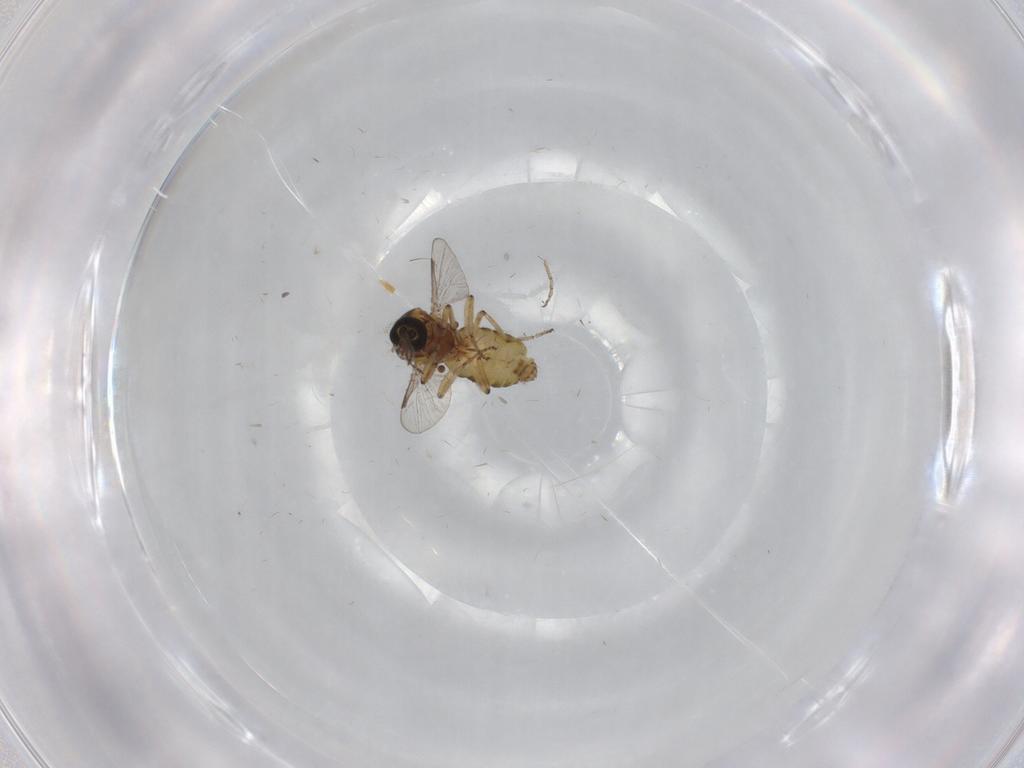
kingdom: Animalia
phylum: Arthropoda
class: Insecta
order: Diptera
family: Ceratopogonidae
